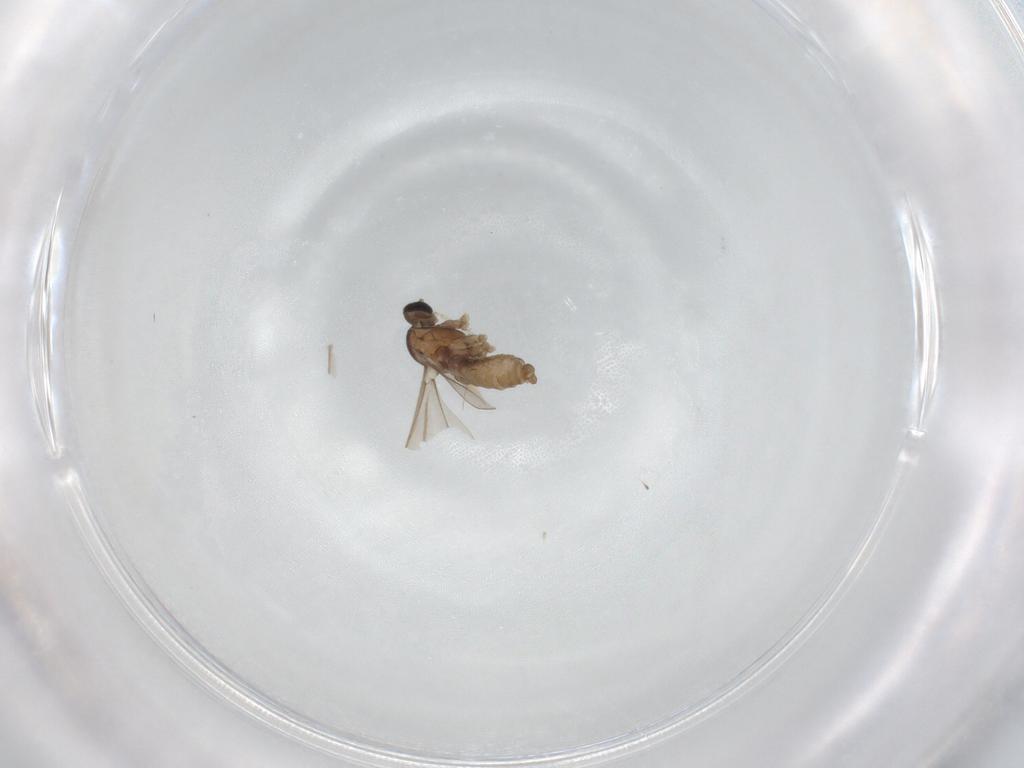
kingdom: Animalia
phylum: Arthropoda
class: Insecta
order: Diptera
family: Cecidomyiidae
